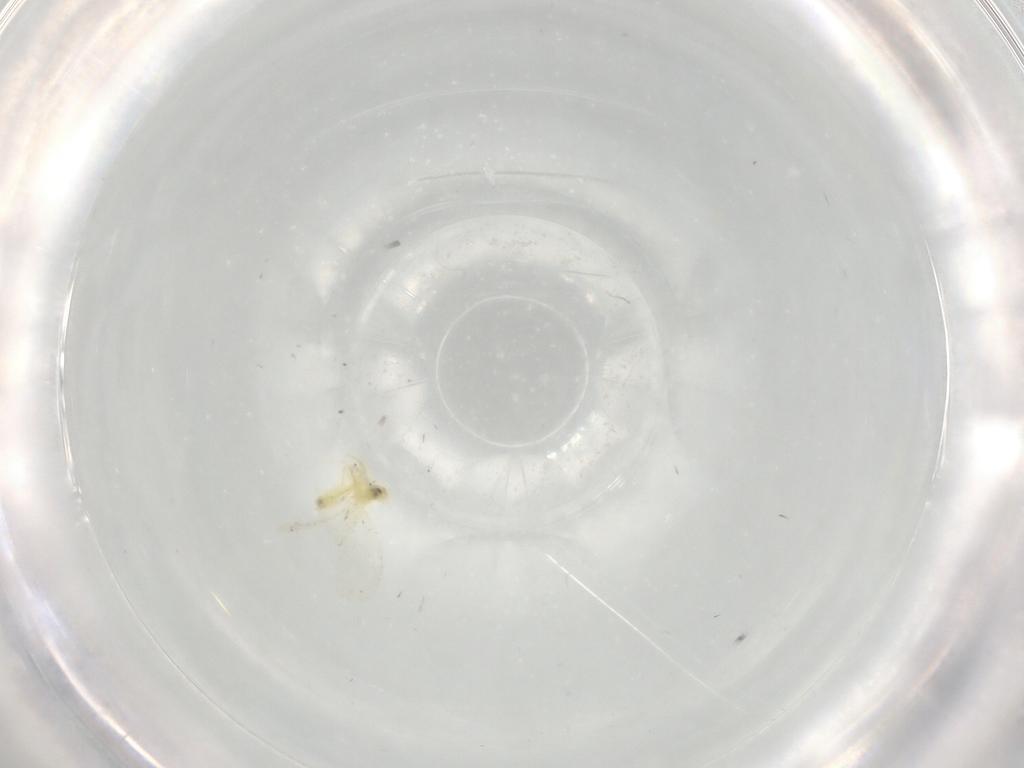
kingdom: Animalia
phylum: Arthropoda
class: Insecta
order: Hemiptera
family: Aleyrodidae
